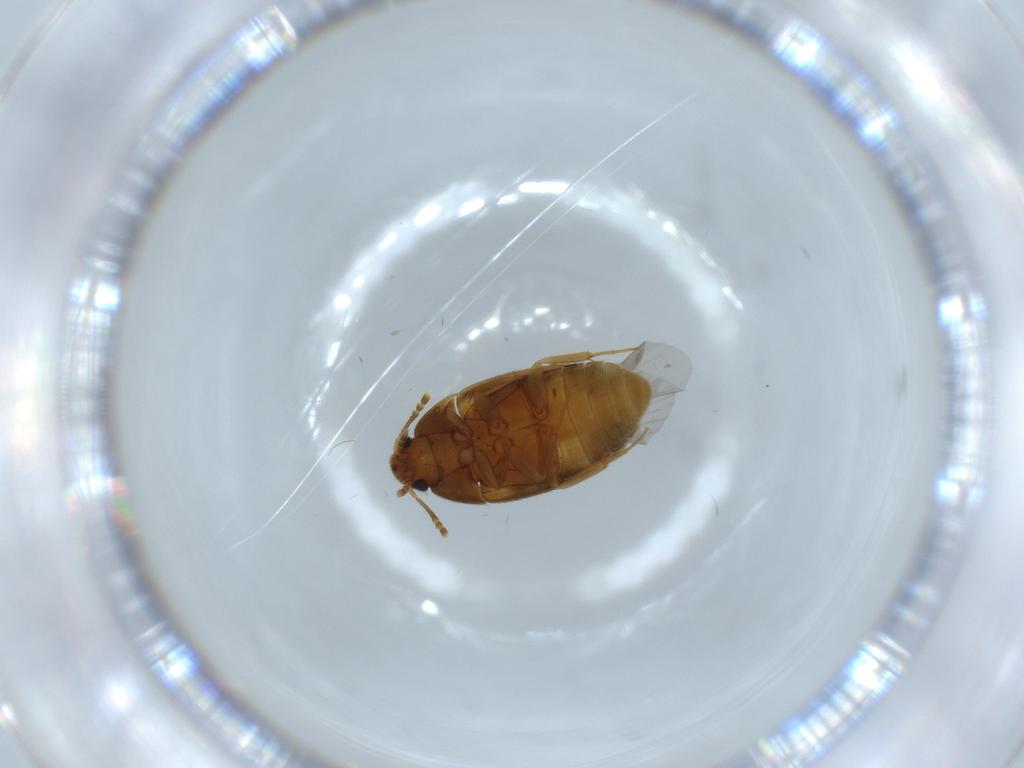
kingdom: Animalia
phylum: Arthropoda
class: Insecta
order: Coleoptera
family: Mycetophagidae
